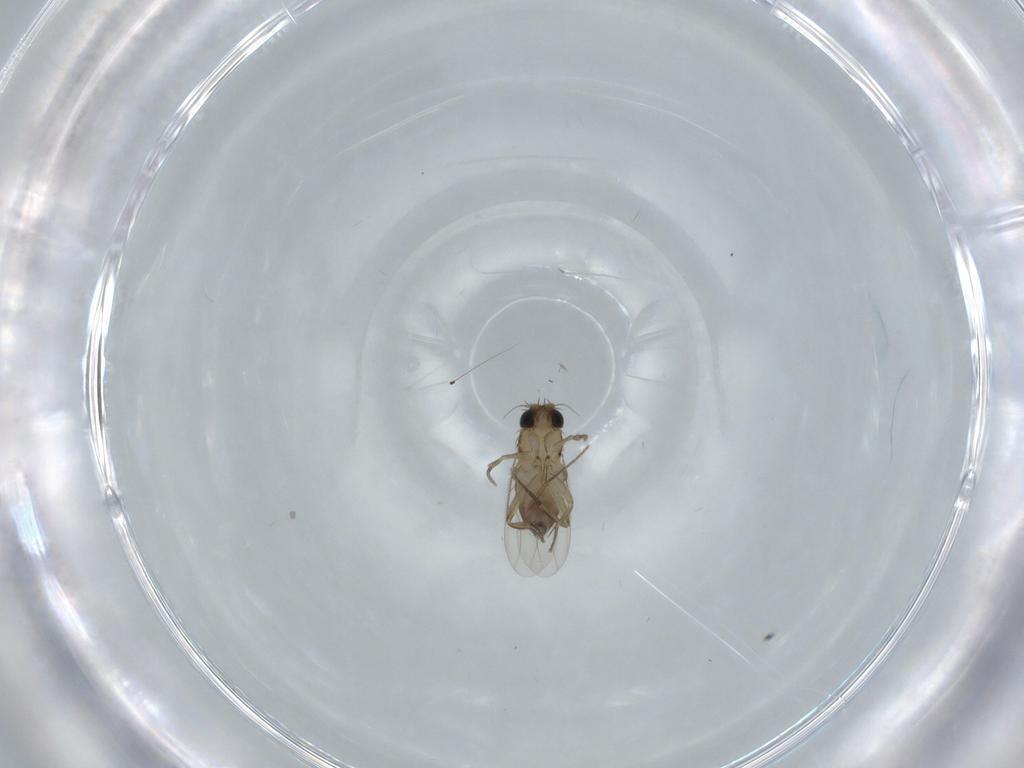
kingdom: Animalia
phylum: Arthropoda
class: Insecta
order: Diptera
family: Phoridae
